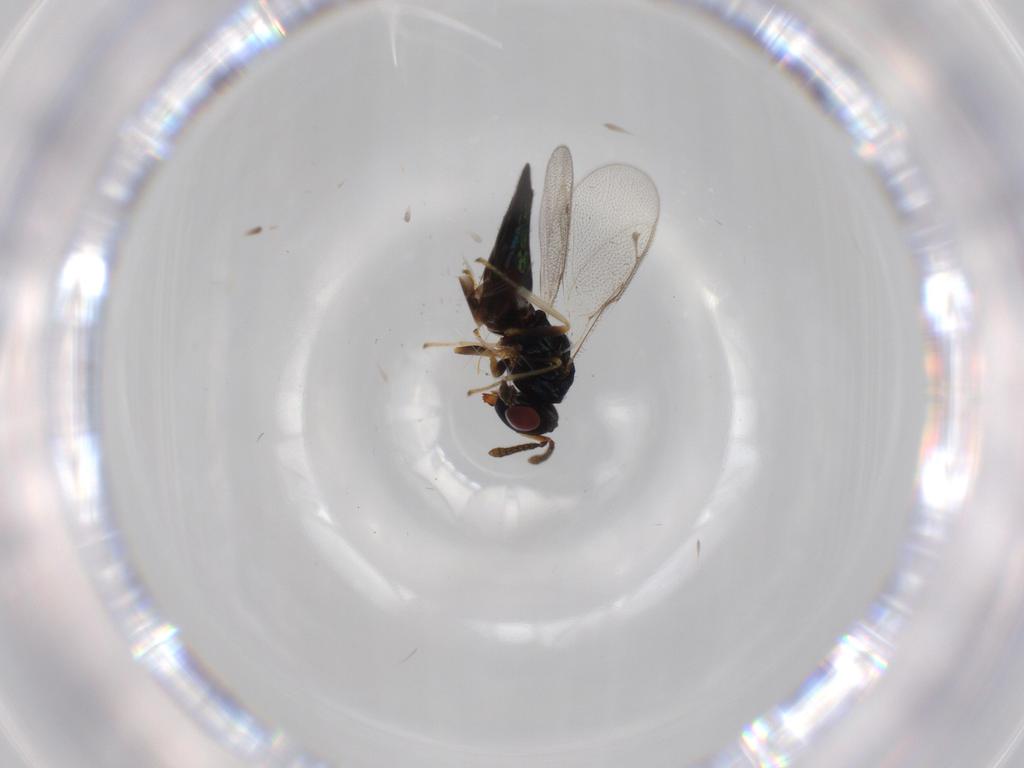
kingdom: Animalia
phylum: Arthropoda
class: Insecta
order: Hymenoptera
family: Pteromalidae
